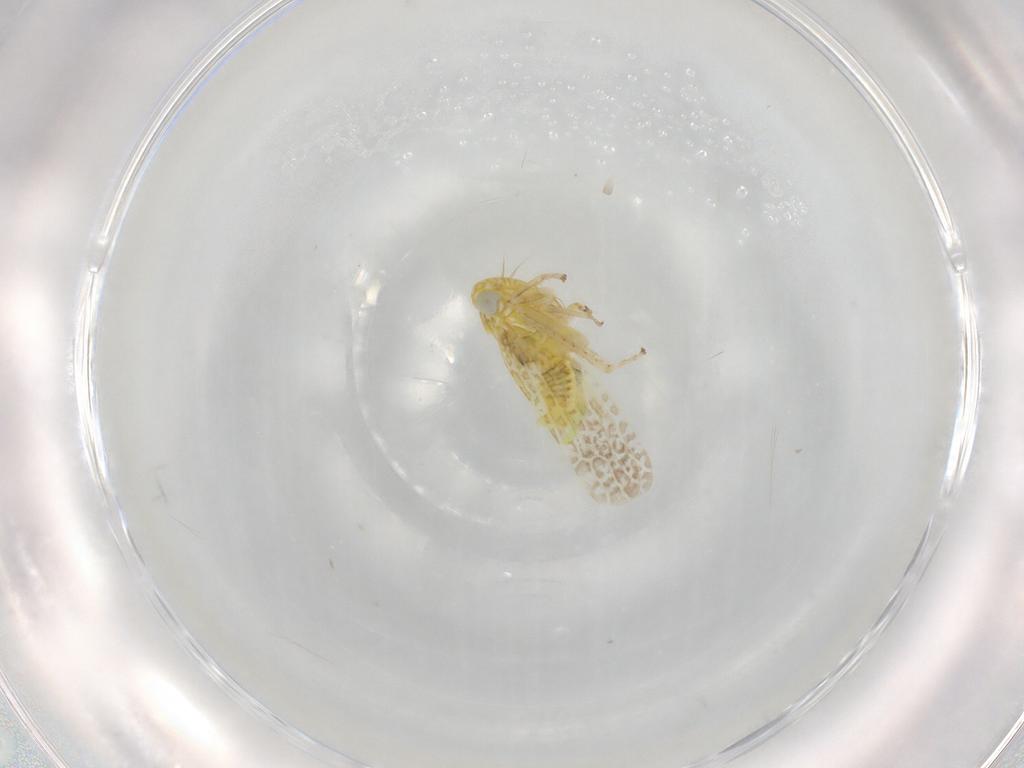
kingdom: Animalia
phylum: Arthropoda
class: Insecta
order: Hemiptera
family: Cicadellidae
